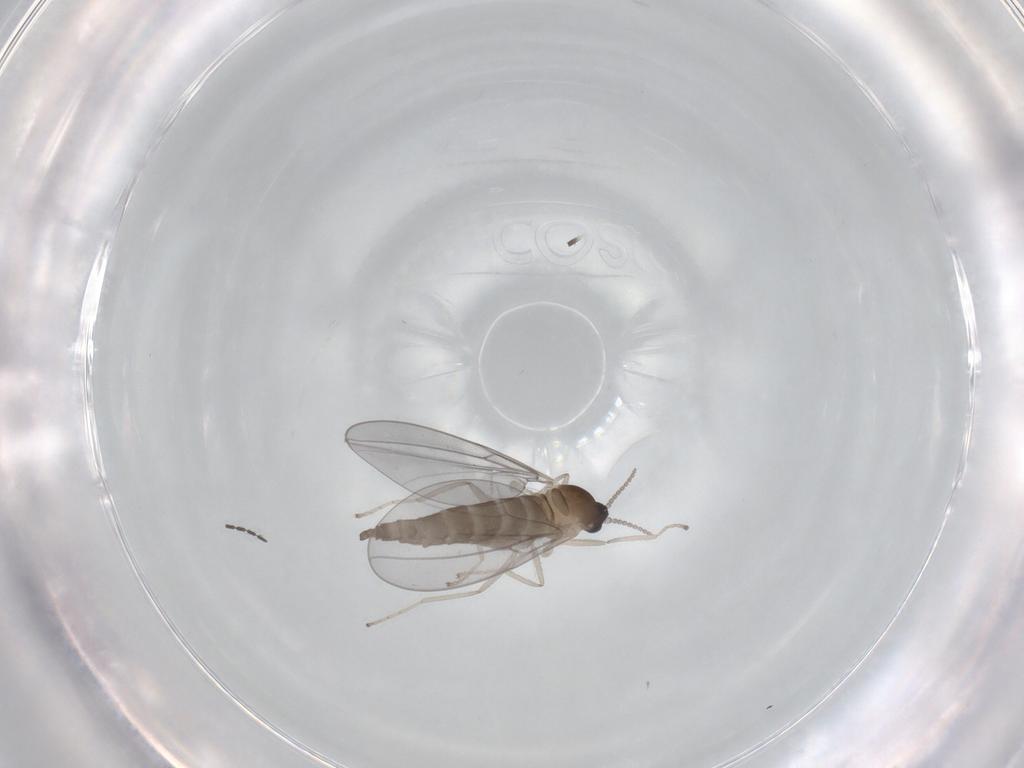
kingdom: Animalia
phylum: Arthropoda
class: Insecta
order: Diptera
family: Cecidomyiidae
